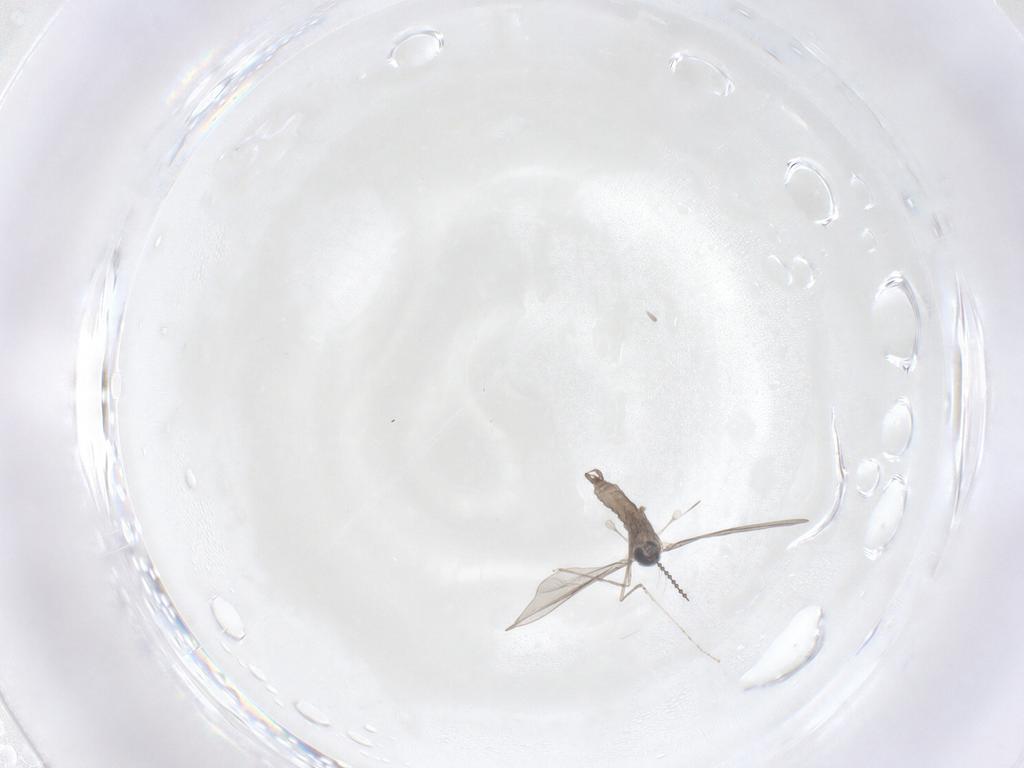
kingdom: Animalia
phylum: Arthropoda
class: Insecta
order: Diptera
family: Cecidomyiidae
